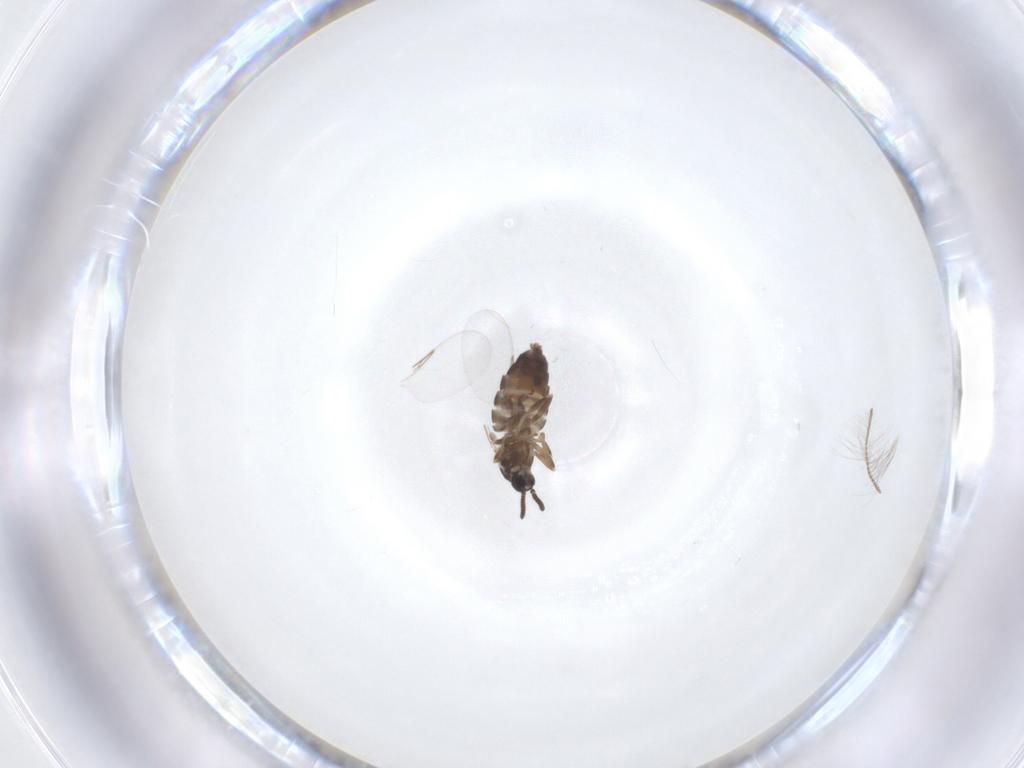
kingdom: Animalia
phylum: Arthropoda
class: Insecta
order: Diptera
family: Scatopsidae
